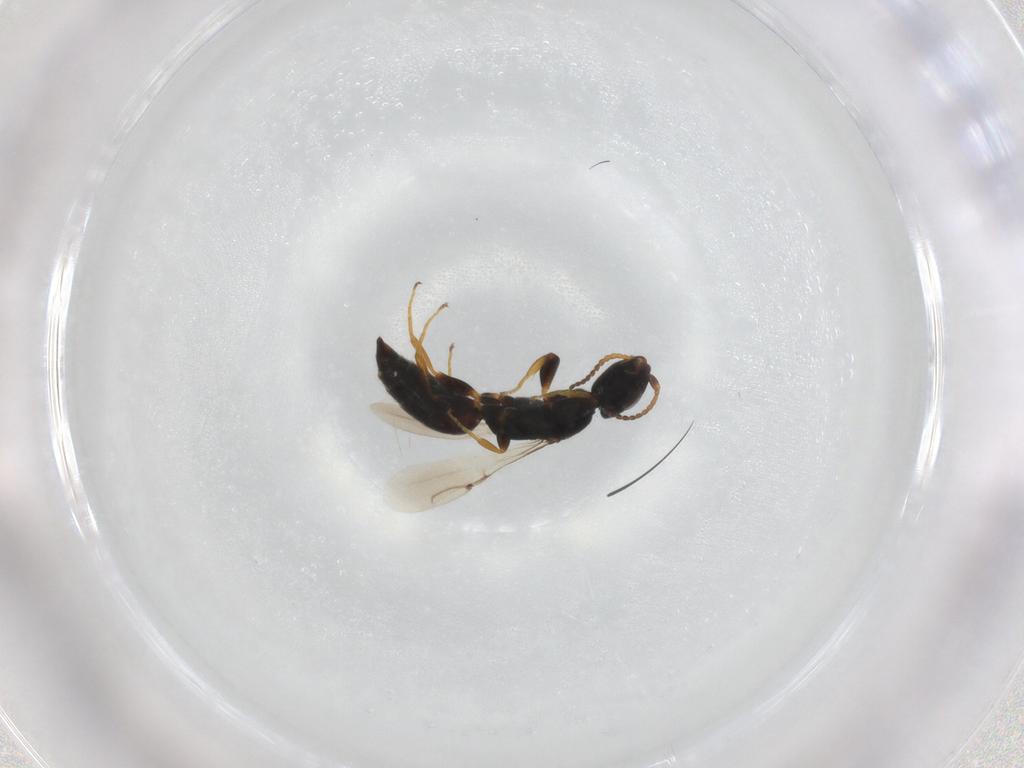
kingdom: Animalia
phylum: Arthropoda
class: Insecta
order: Hymenoptera
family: Bethylidae
